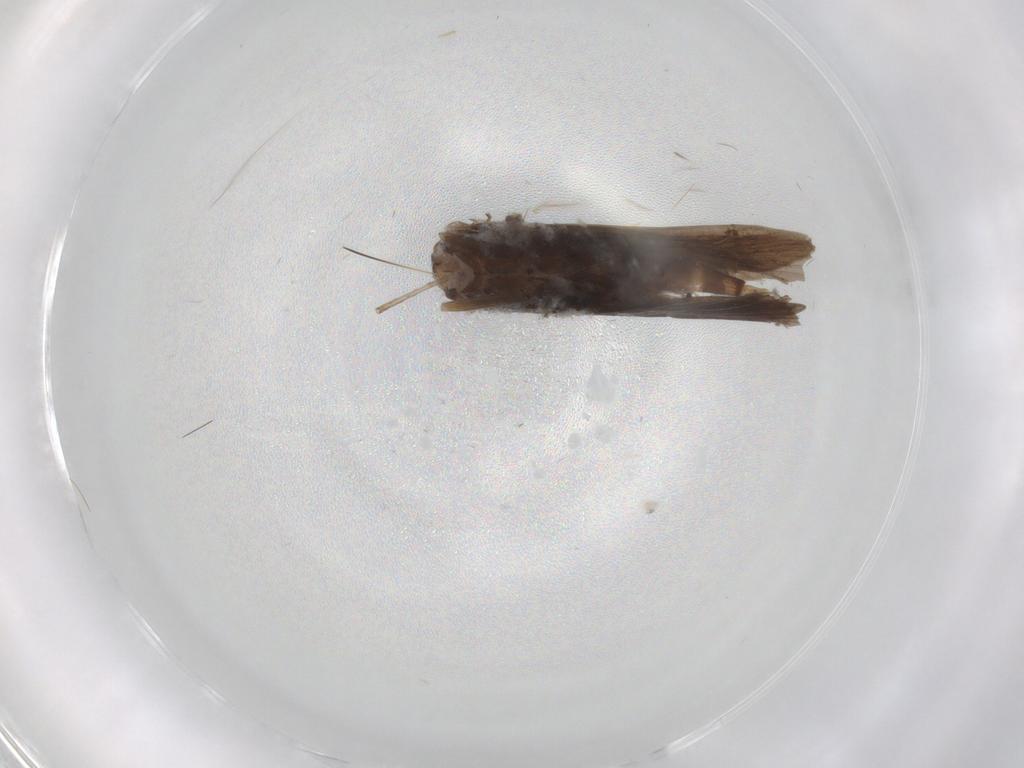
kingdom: Animalia
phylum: Arthropoda
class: Insecta
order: Trichoptera
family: Xiphocentronidae
